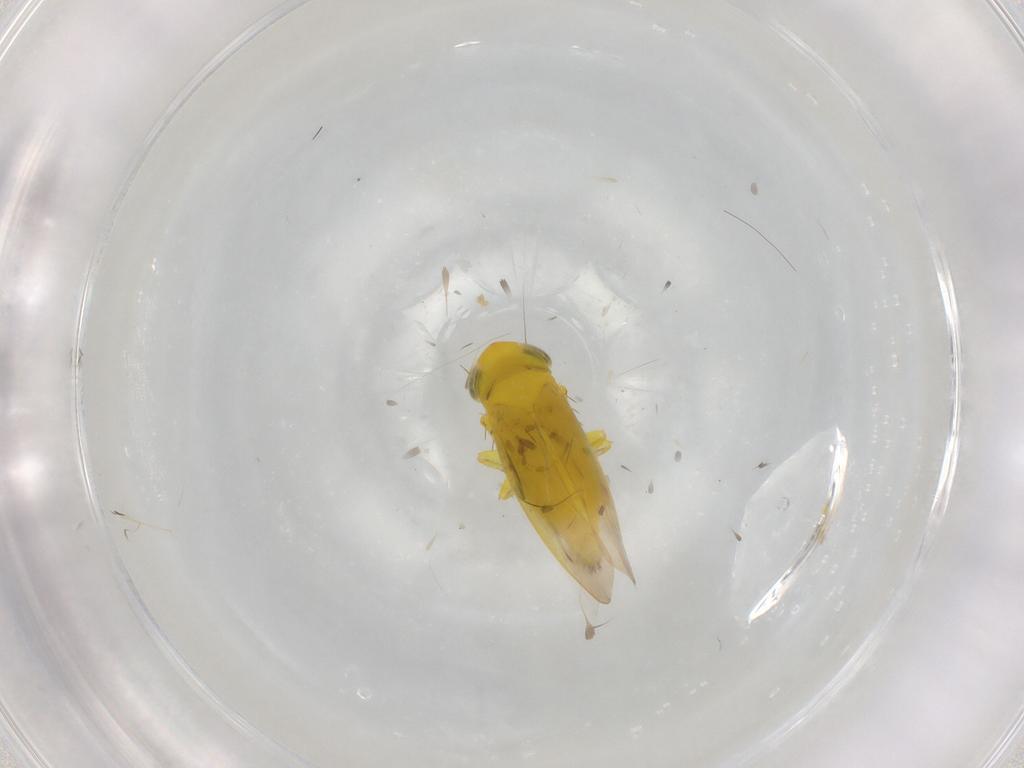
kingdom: Animalia
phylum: Arthropoda
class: Insecta
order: Hemiptera
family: Cicadellidae
